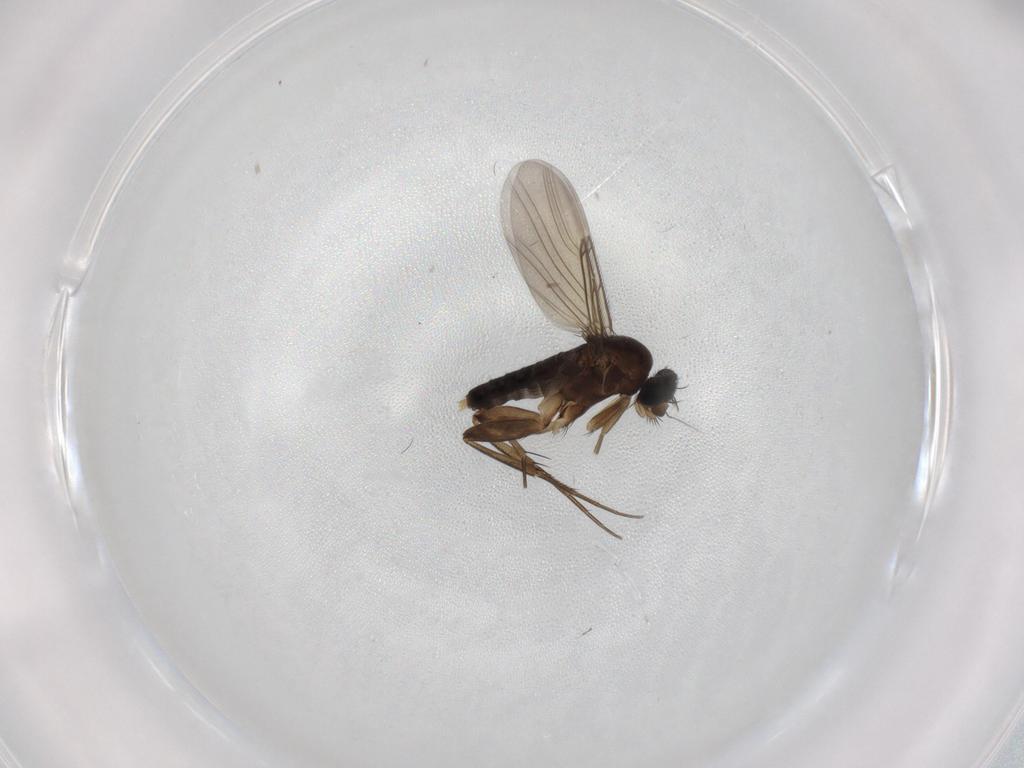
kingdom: Animalia
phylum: Arthropoda
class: Insecta
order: Diptera
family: Phoridae
